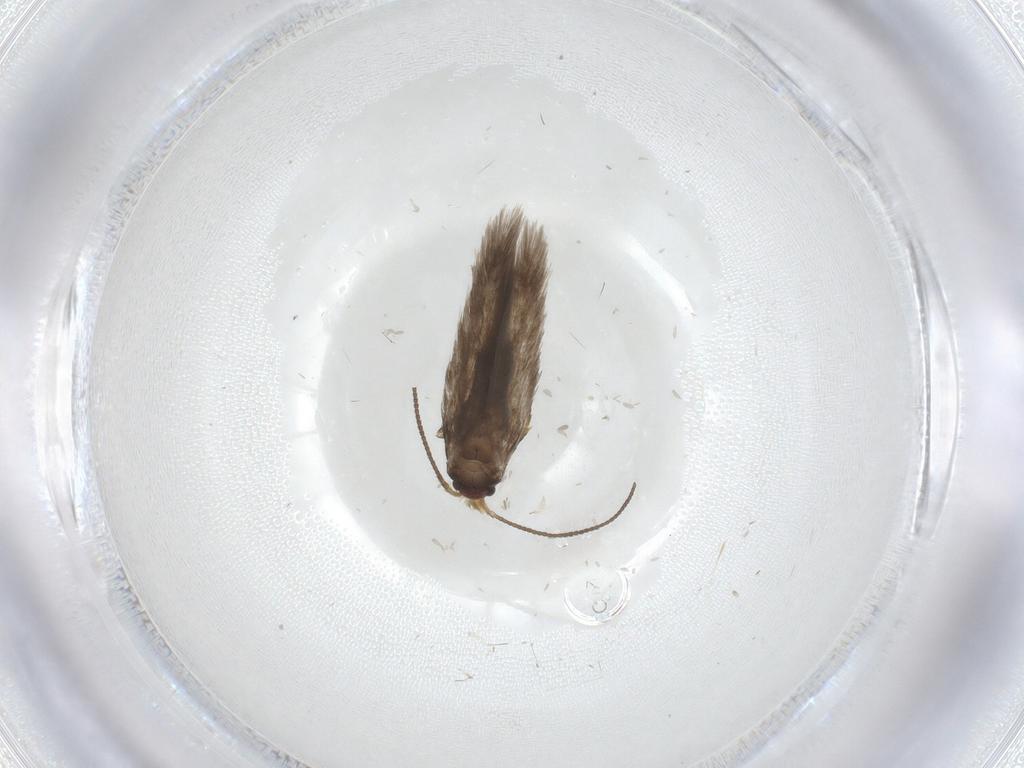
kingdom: Animalia
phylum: Arthropoda
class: Insecta
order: Lepidoptera
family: Nepticulidae
